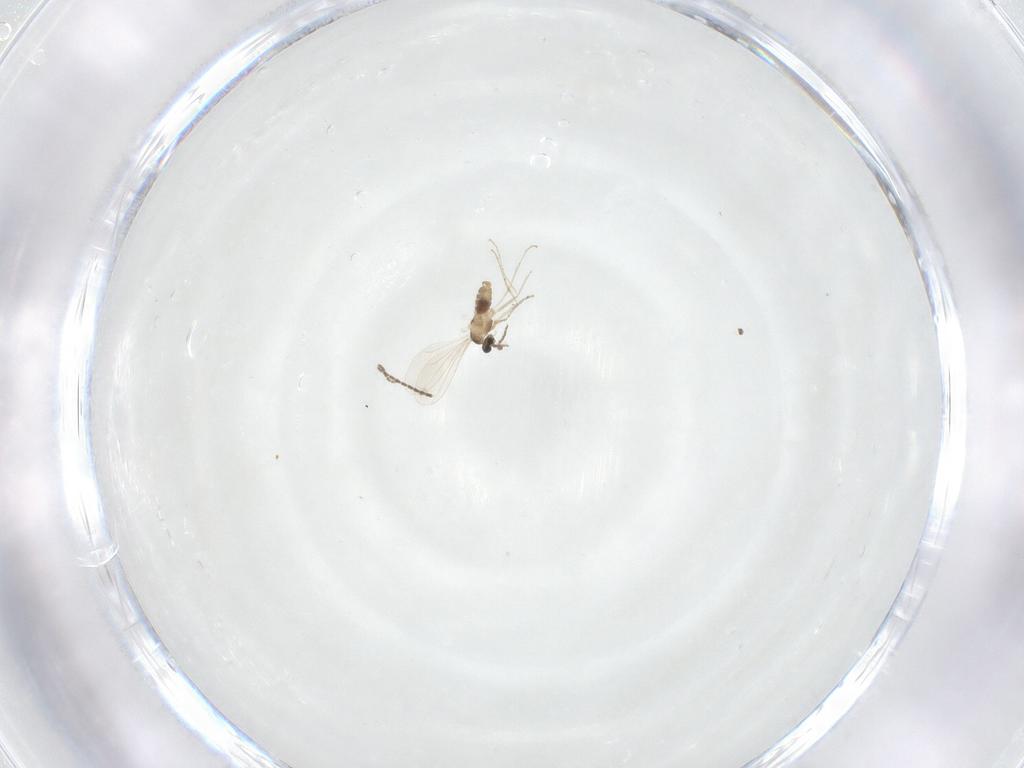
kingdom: Animalia
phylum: Arthropoda
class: Insecta
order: Diptera
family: Cecidomyiidae
